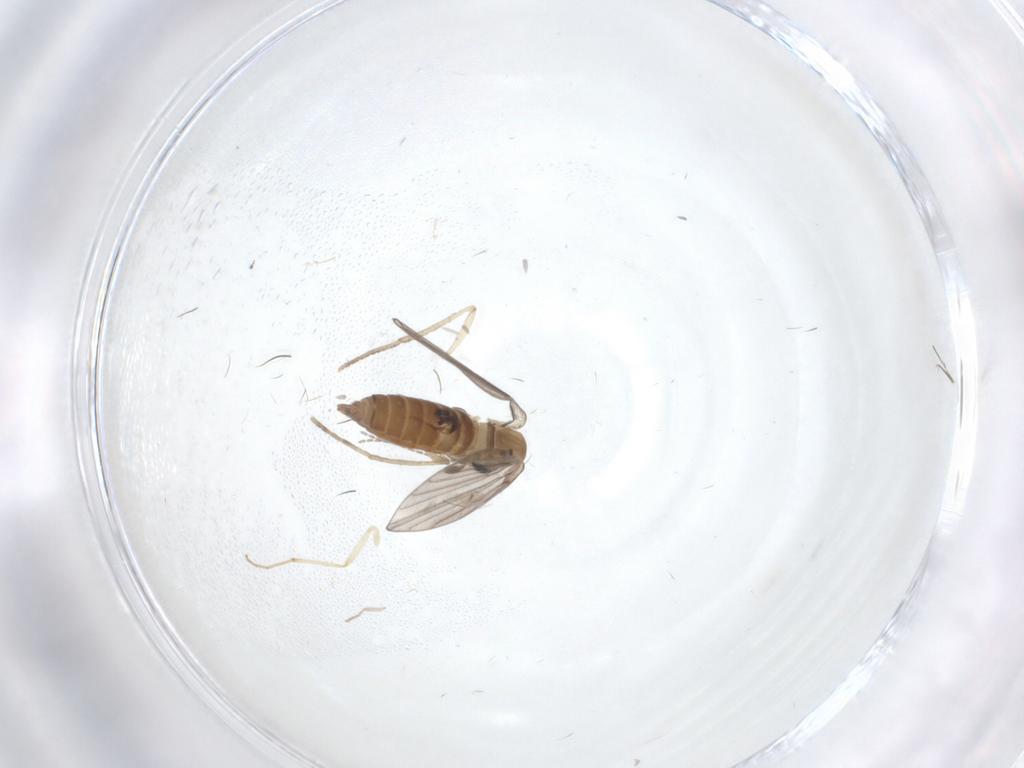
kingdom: Animalia
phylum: Arthropoda
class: Insecta
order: Diptera
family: Chironomidae
